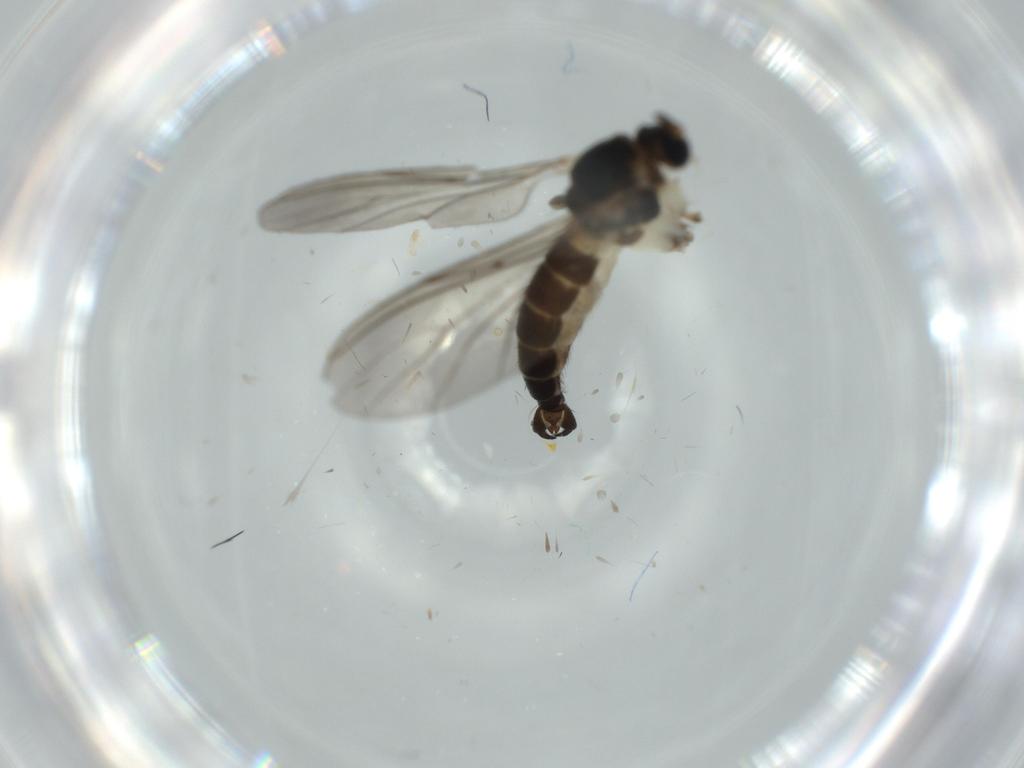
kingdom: Animalia
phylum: Arthropoda
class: Insecta
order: Diptera
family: Sciaridae
